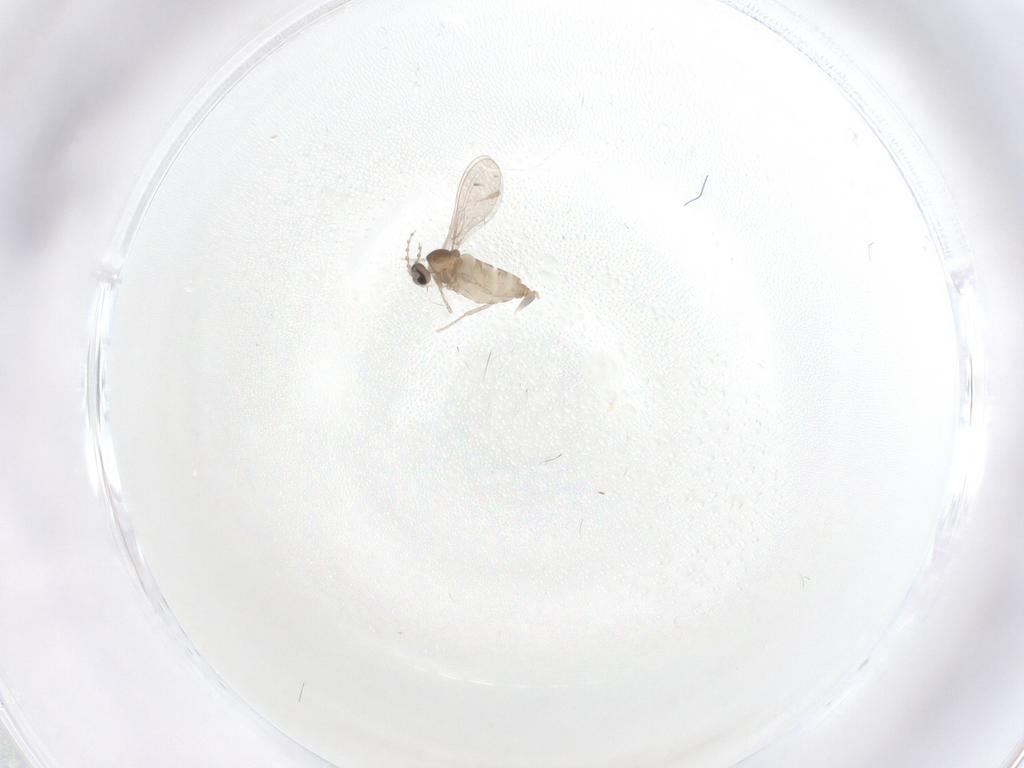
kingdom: Animalia
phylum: Arthropoda
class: Insecta
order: Diptera
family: Cecidomyiidae
